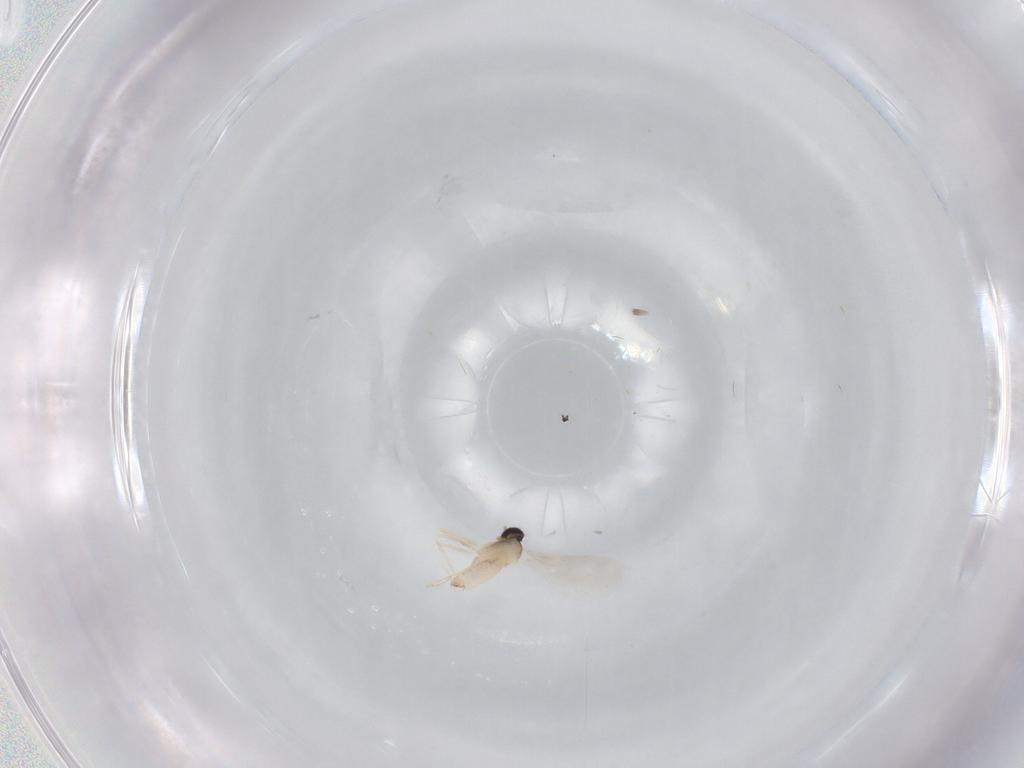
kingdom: Animalia
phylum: Arthropoda
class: Insecta
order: Diptera
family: Cecidomyiidae
